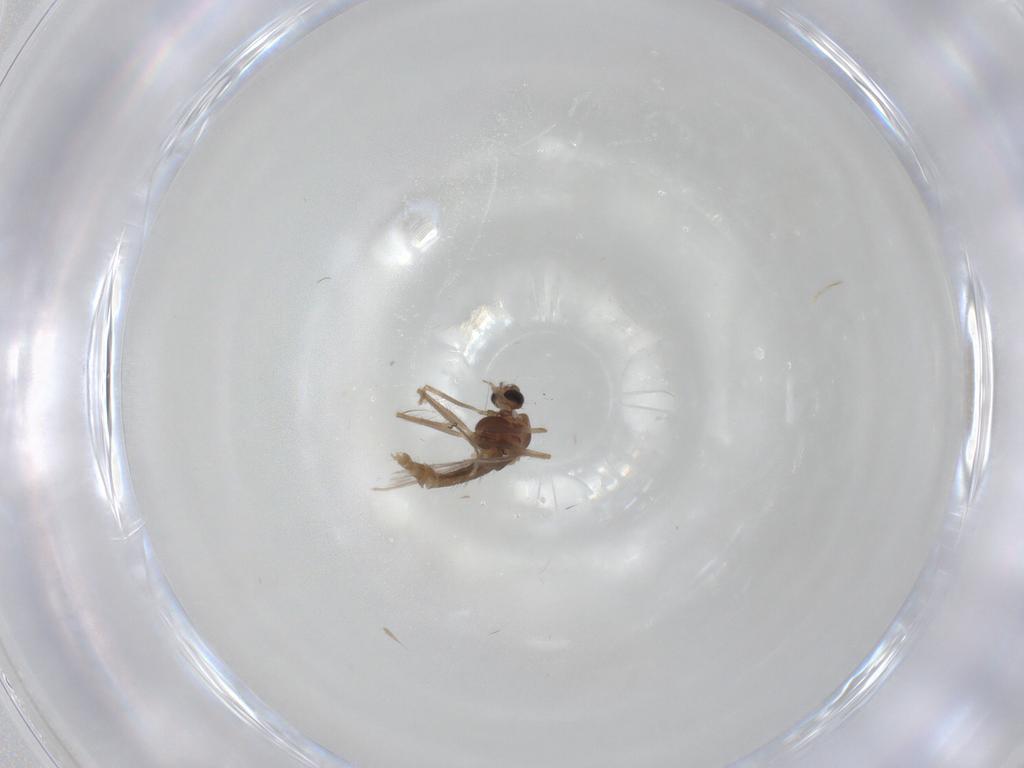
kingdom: Animalia
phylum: Arthropoda
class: Insecta
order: Diptera
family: Chironomidae
